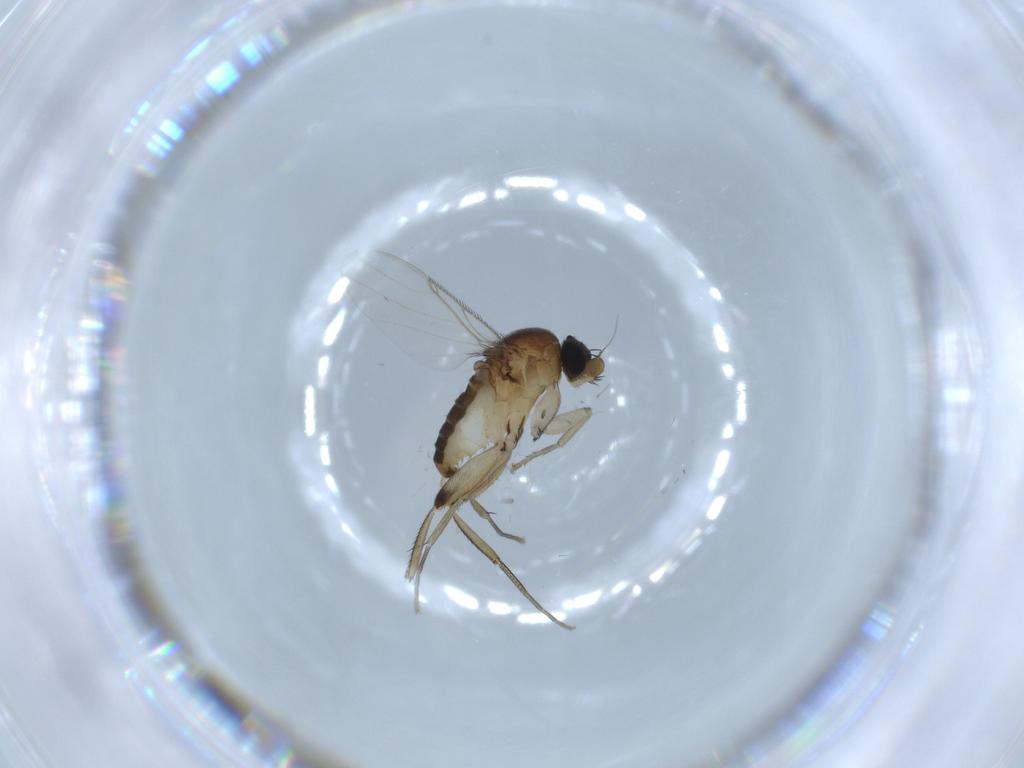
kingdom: Animalia
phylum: Arthropoda
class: Insecta
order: Diptera
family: Phoridae
